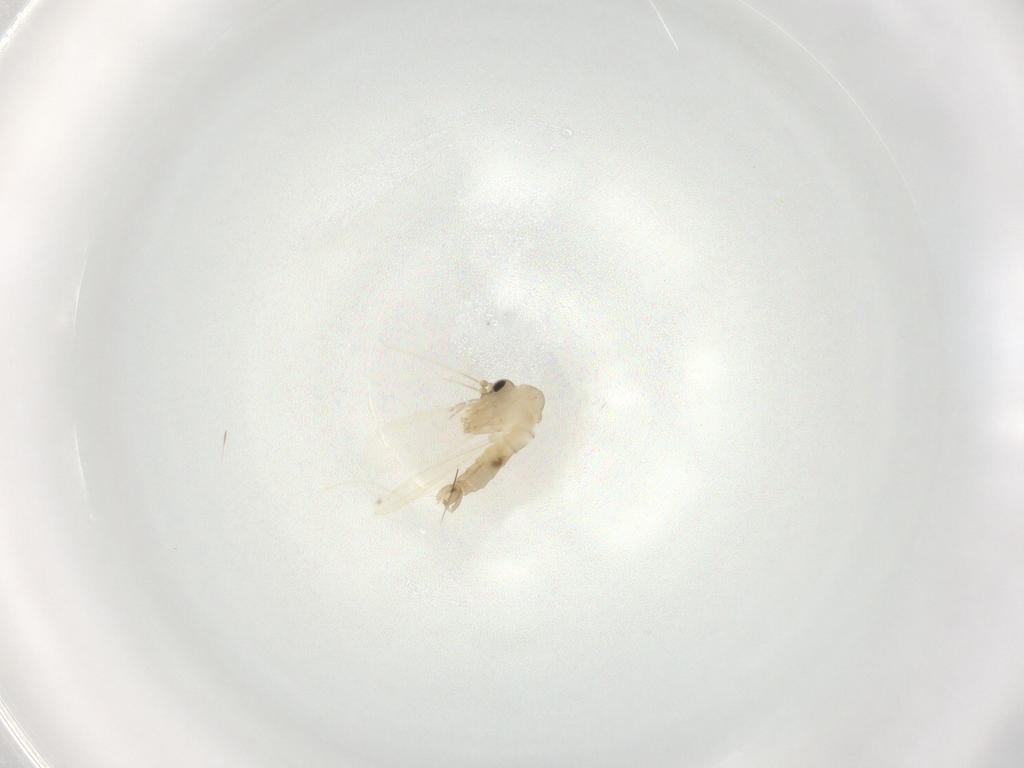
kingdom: Animalia
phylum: Arthropoda
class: Insecta
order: Diptera
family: Psychodidae
